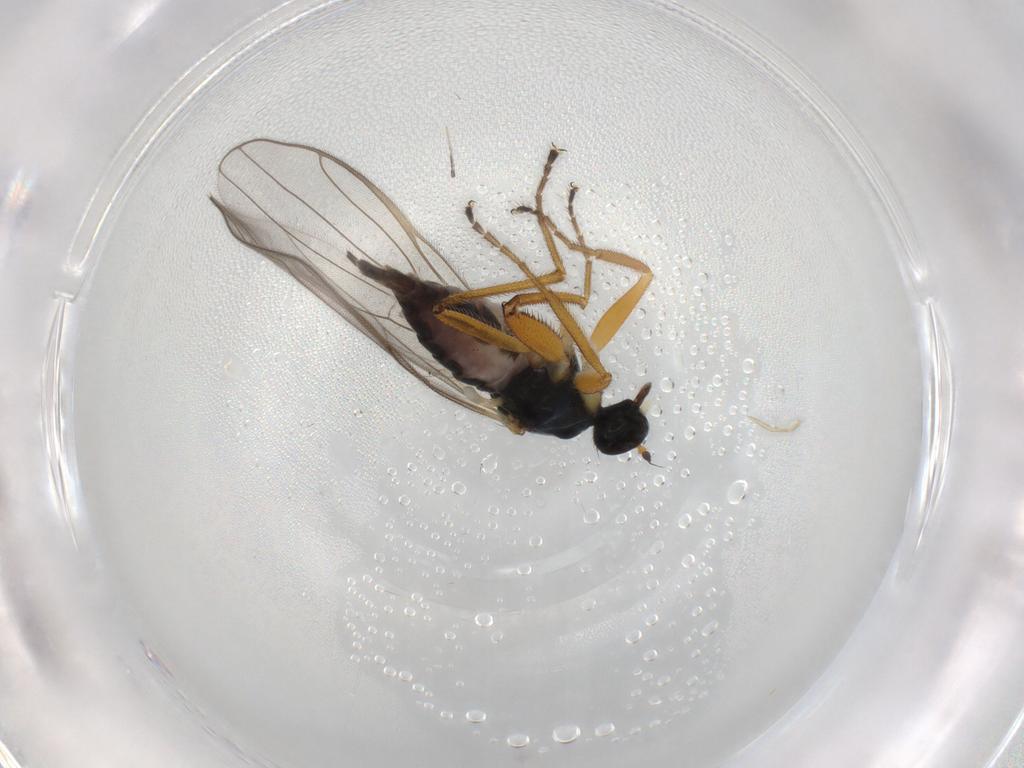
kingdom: Animalia
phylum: Arthropoda
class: Insecta
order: Diptera
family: Hybotidae
